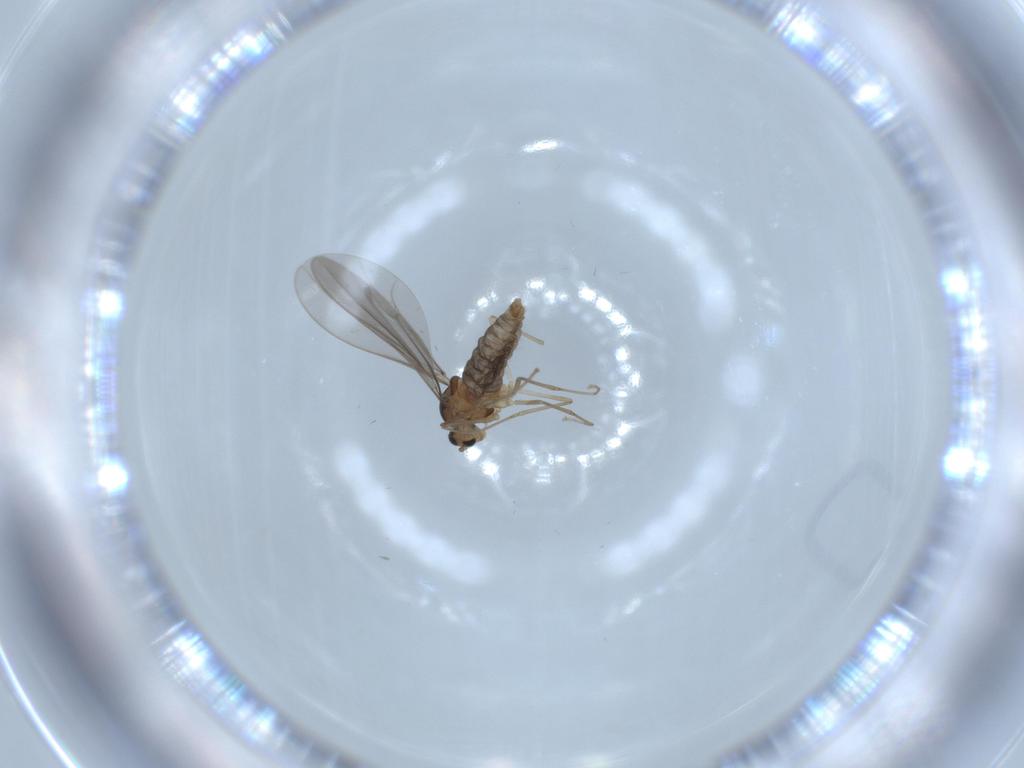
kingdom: Animalia
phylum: Arthropoda
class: Insecta
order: Diptera
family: Cecidomyiidae
